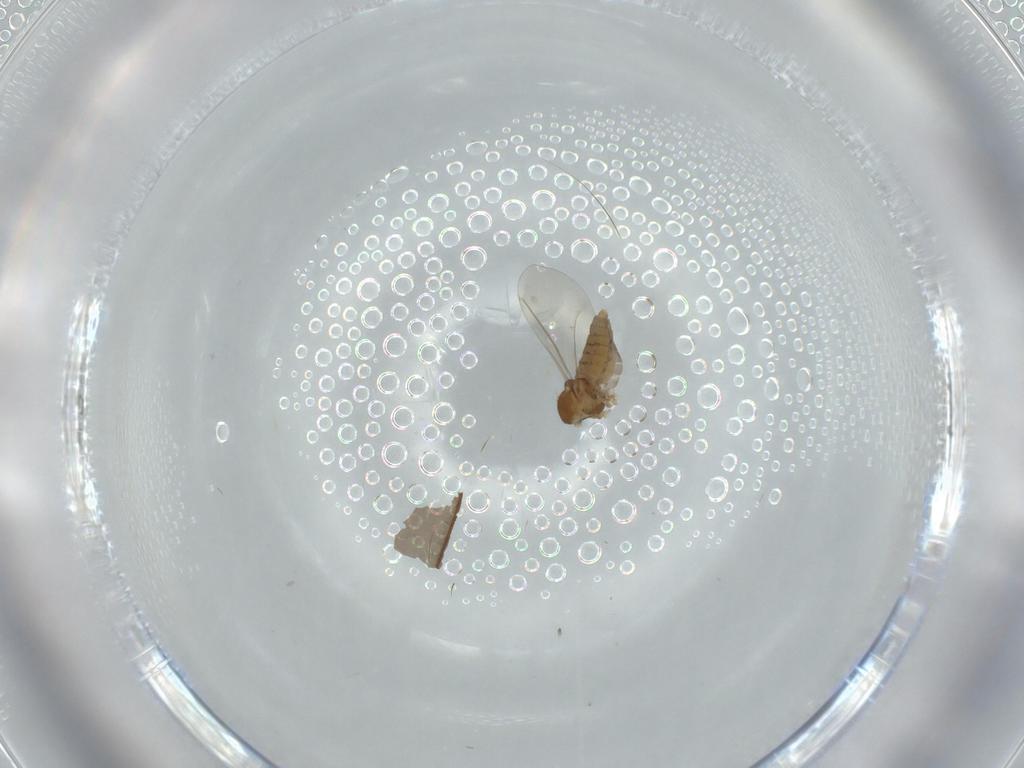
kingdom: Animalia
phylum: Arthropoda
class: Insecta
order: Diptera
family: Cecidomyiidae
